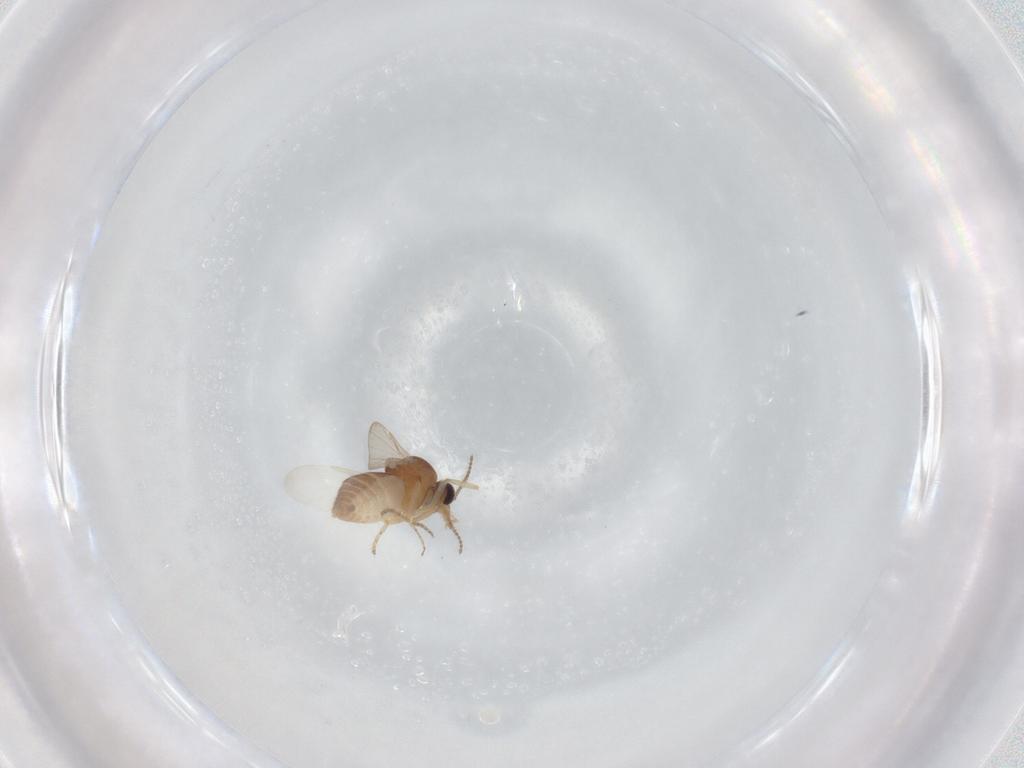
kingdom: Animalia
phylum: Arthropoda
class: Insecta
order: Diptera
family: Ceratopogonidae
